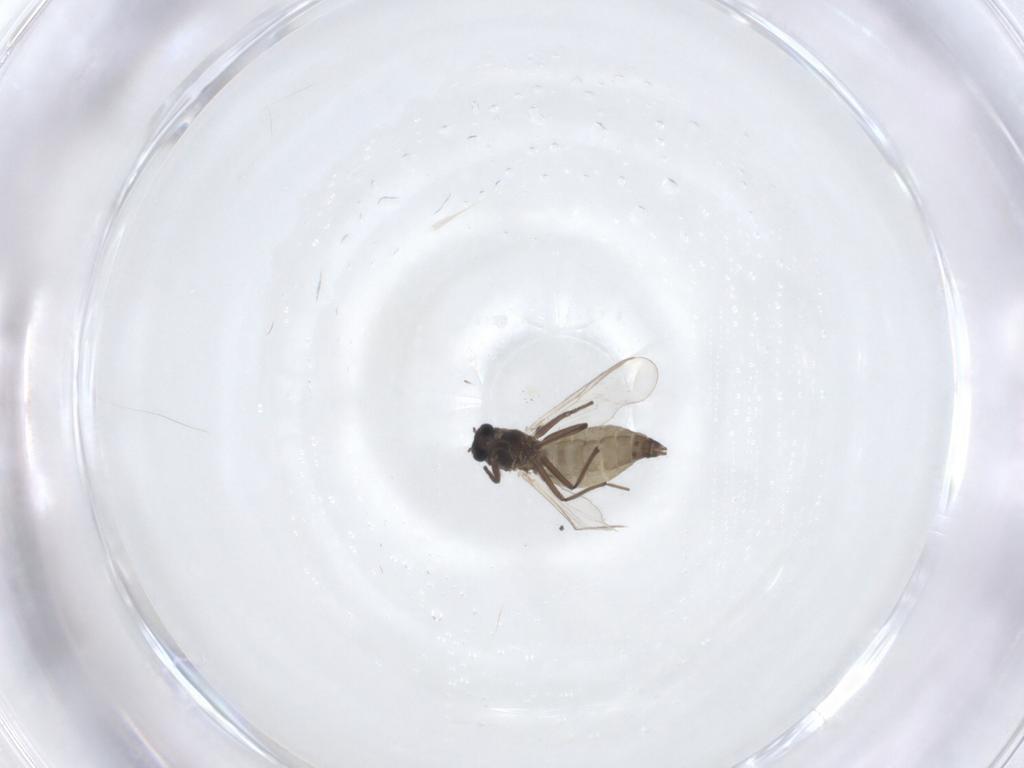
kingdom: Animalia
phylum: Arthropoda
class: Insecta
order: Diptera
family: Chironomidae
